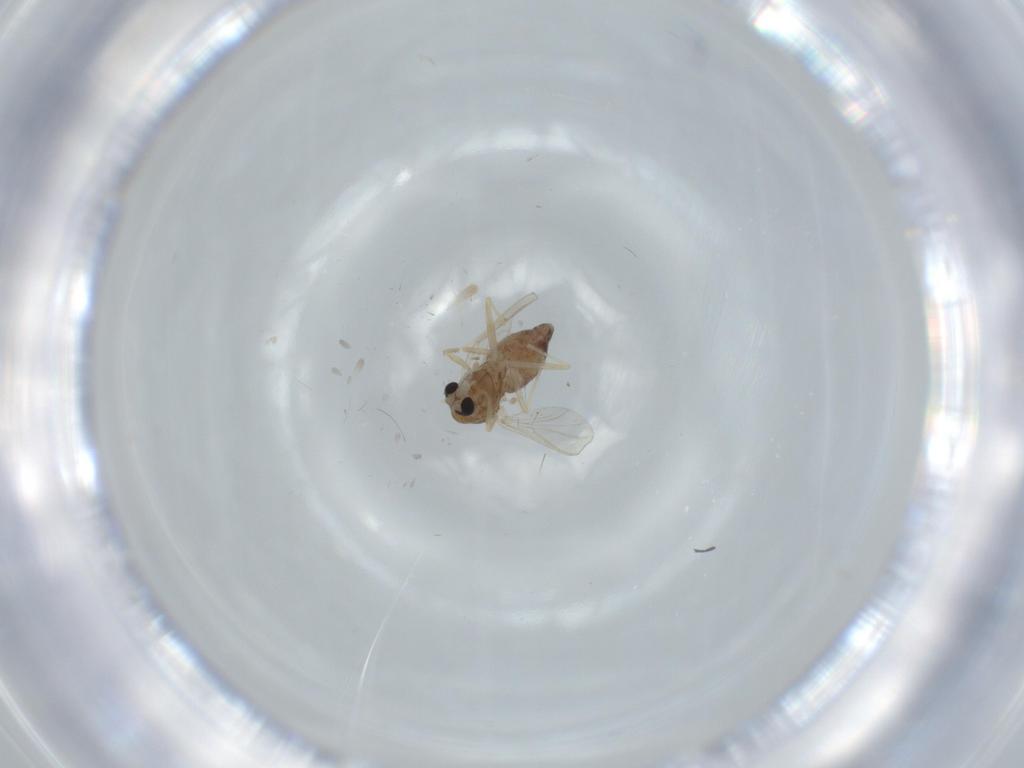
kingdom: Animalia
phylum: Arthropoda
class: Insecta
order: Diptera
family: Chironomidae
